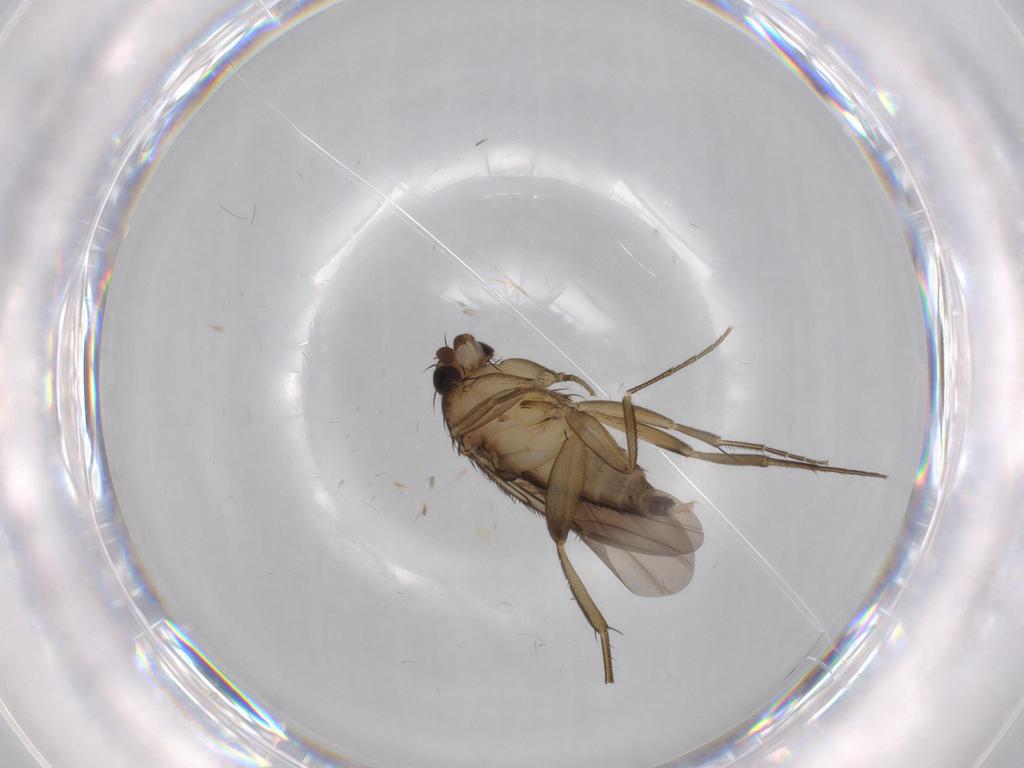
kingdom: Animalia
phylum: Arthropoda
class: Insecta
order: Diptera
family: Phoridae
